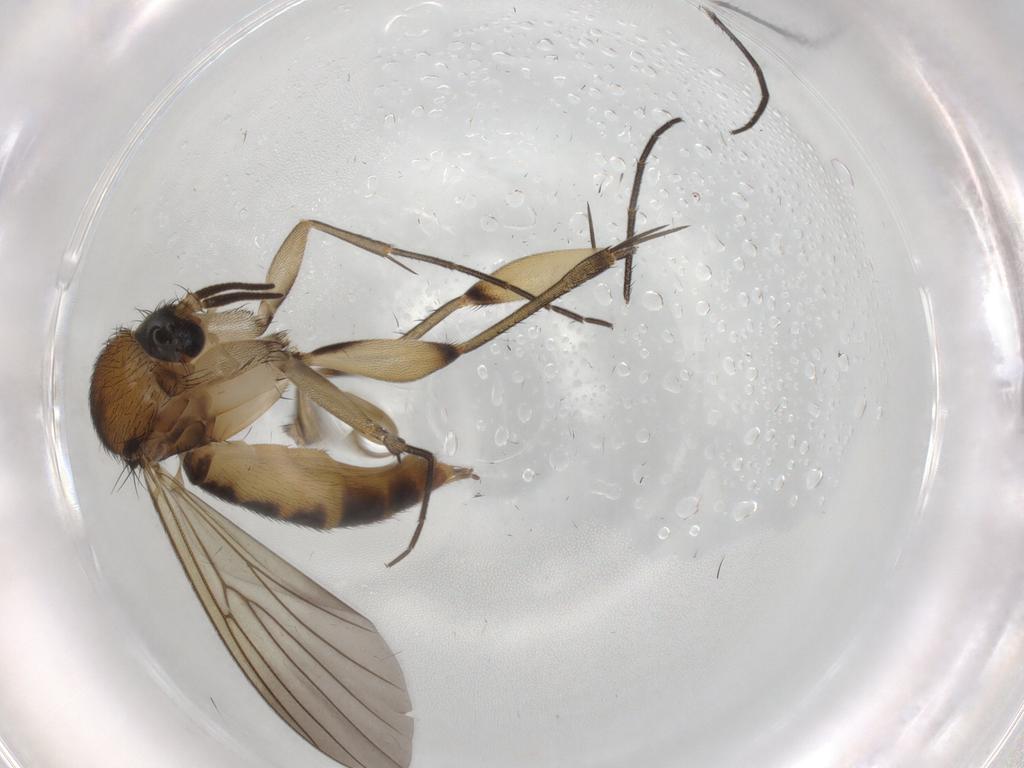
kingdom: Animalia
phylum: Arthropoda
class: Insecta
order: Diptera
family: Mycetophilidae
